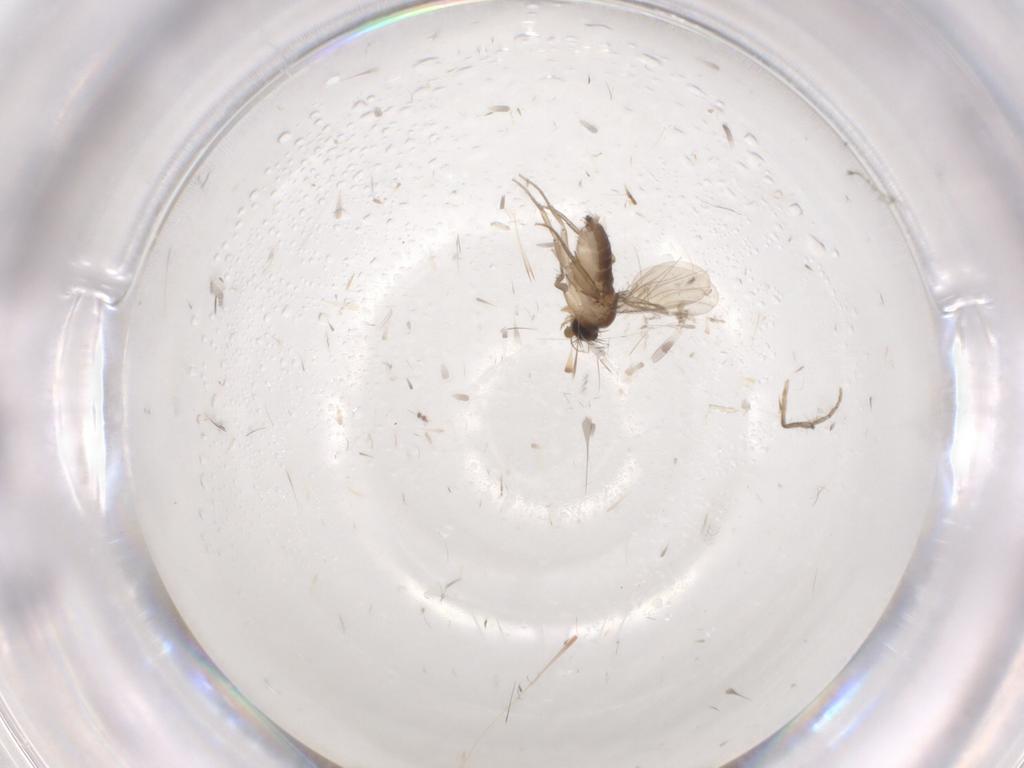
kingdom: Animalia
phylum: Arthropoda
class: Insecta
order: Diptera
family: Phoridae
